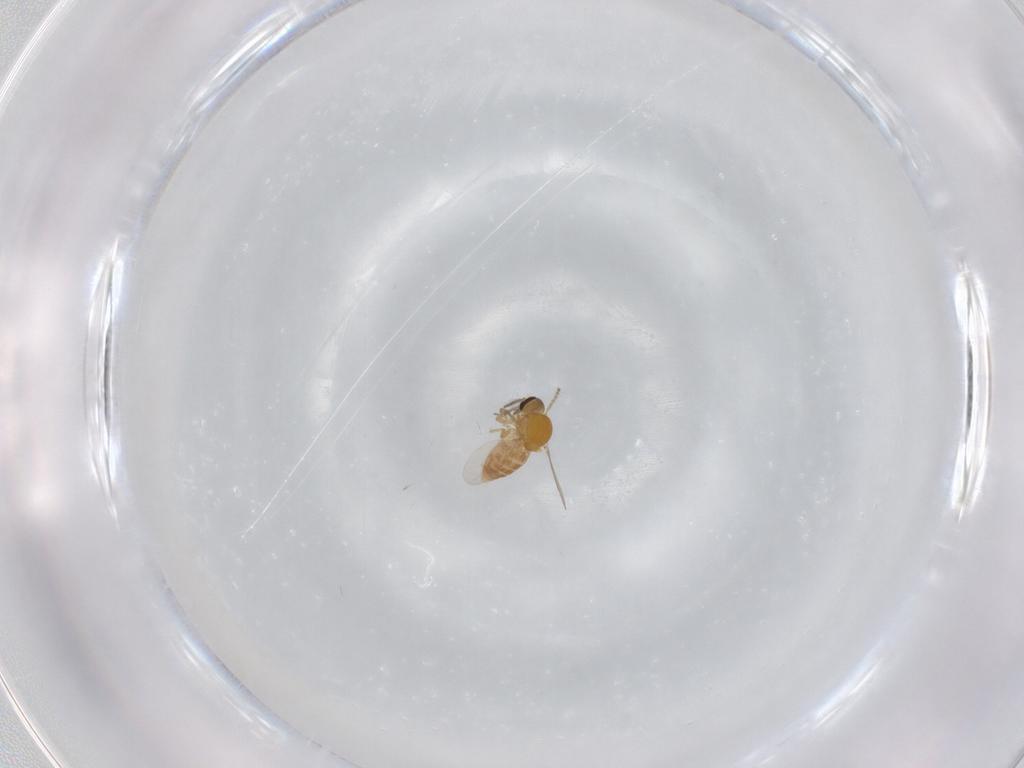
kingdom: Animalia
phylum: Arthropoda
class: Insecta
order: Diptera
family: Ceratopogonidae
